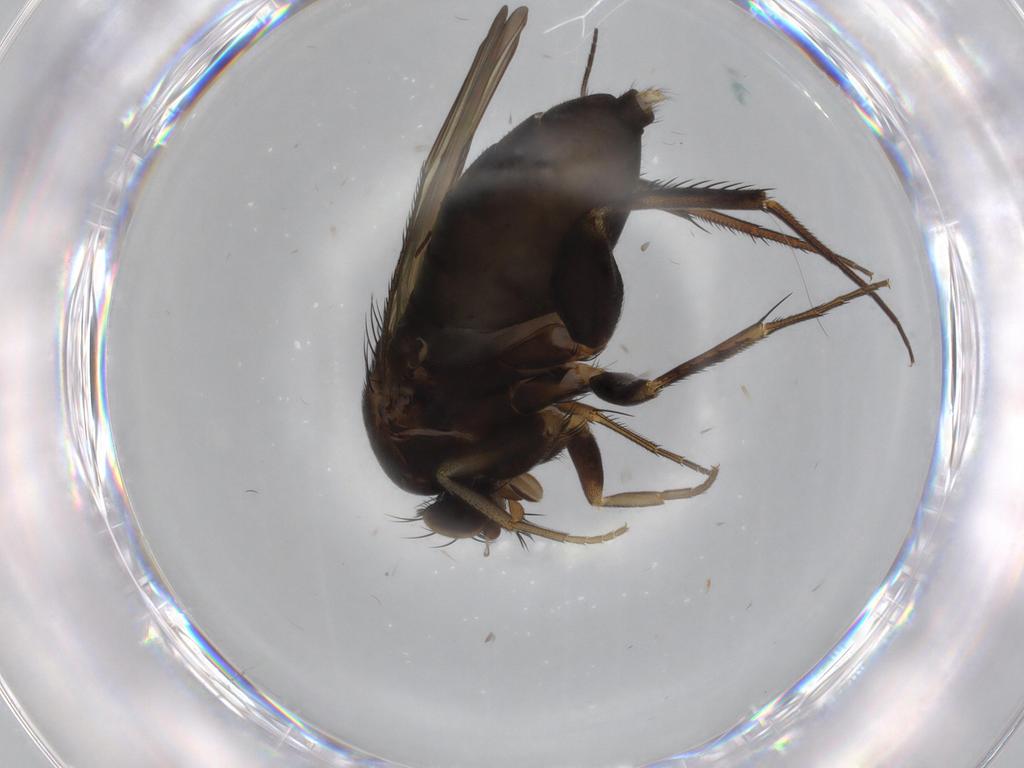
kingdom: Animalia
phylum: Arthropoda
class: Insecta
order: Diptera
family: Phoridae
